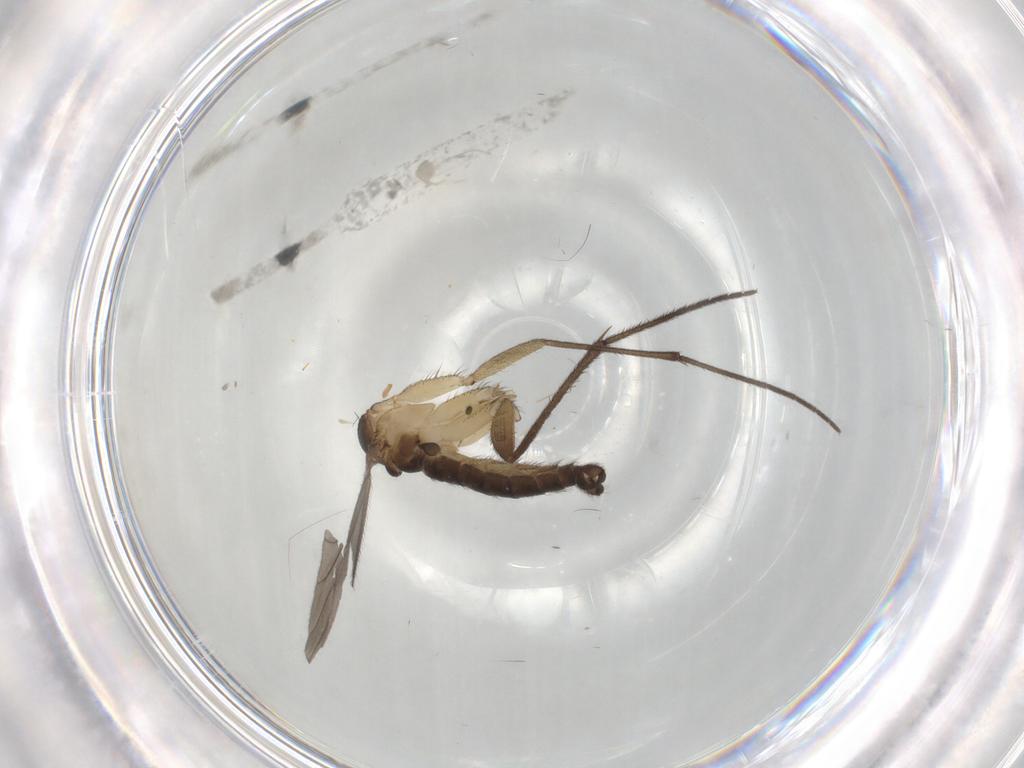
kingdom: Animalia
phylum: Arthropoda
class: Insecta
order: Diptera
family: Sciaridae
